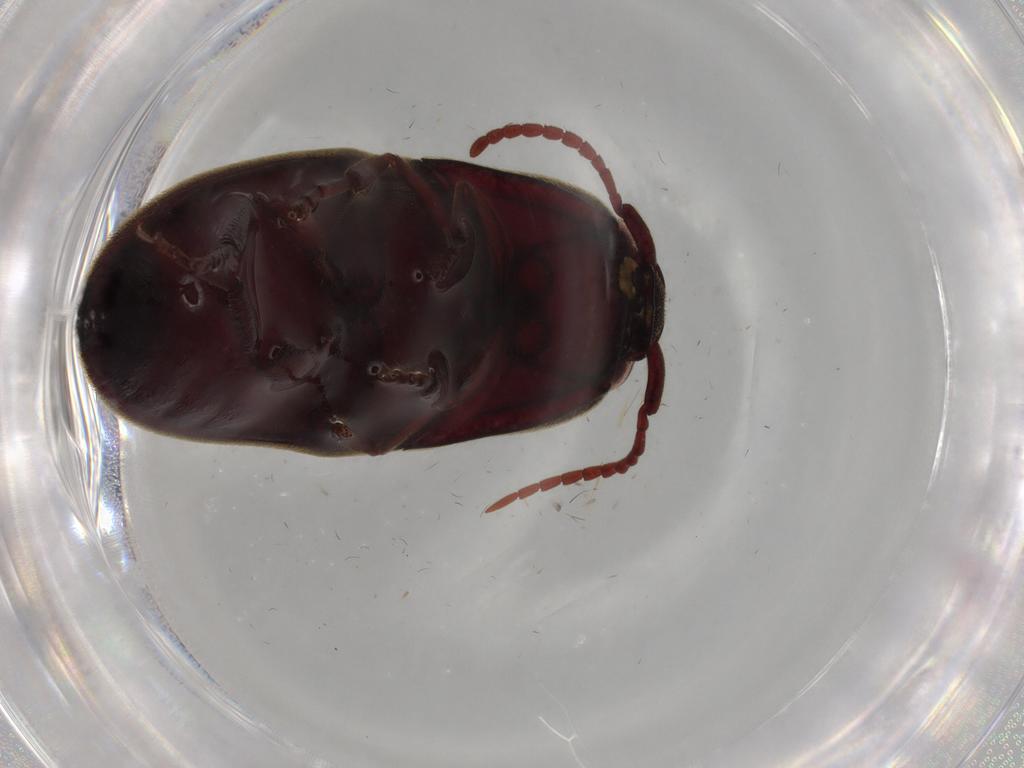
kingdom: Animalia
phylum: Arthropoda
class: Insecta
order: Coleoptera
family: Eucnemidae
